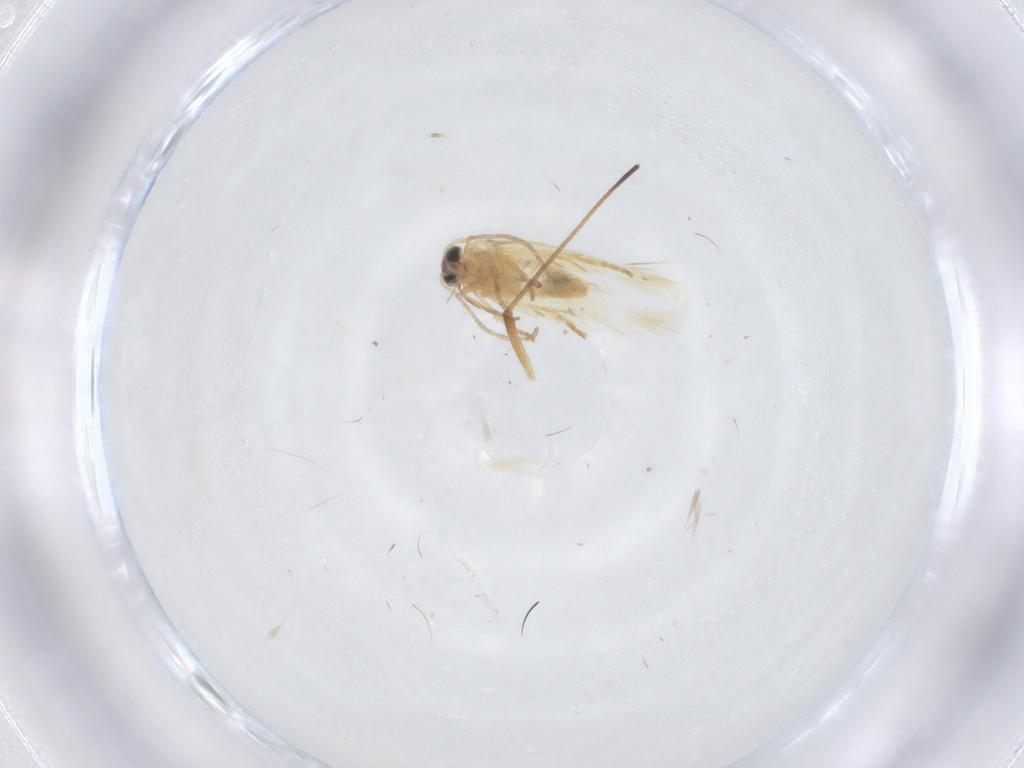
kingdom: Animalia
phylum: Arthropoda
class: Insecta
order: Lepidoptera
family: Nepticulidae
